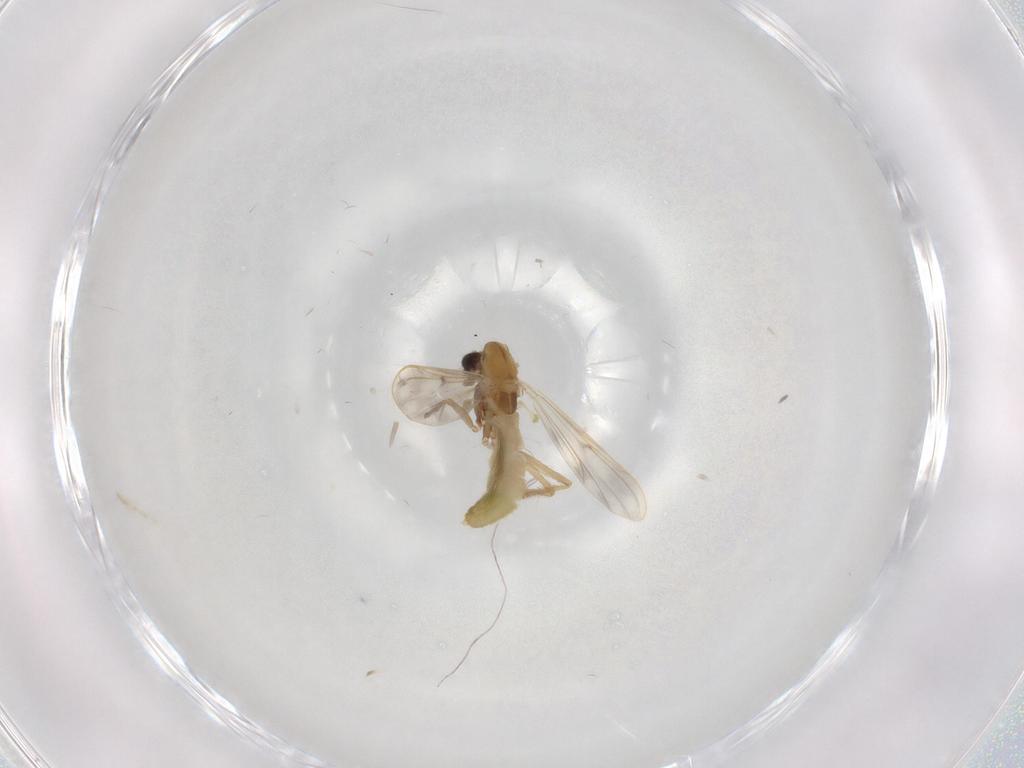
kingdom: Animalia
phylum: Arthropoda
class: Insecta
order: Diptera
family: Chironomidae
